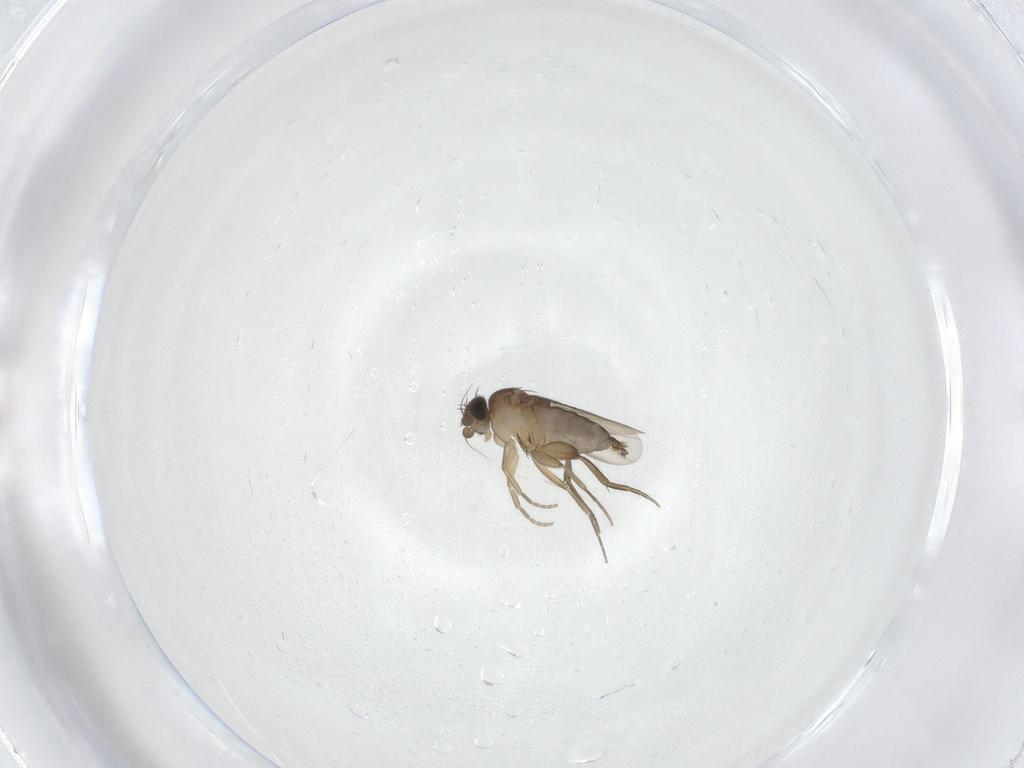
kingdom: Animalia
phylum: Arthropoda
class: Insecta
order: Diptera
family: Phoridae
